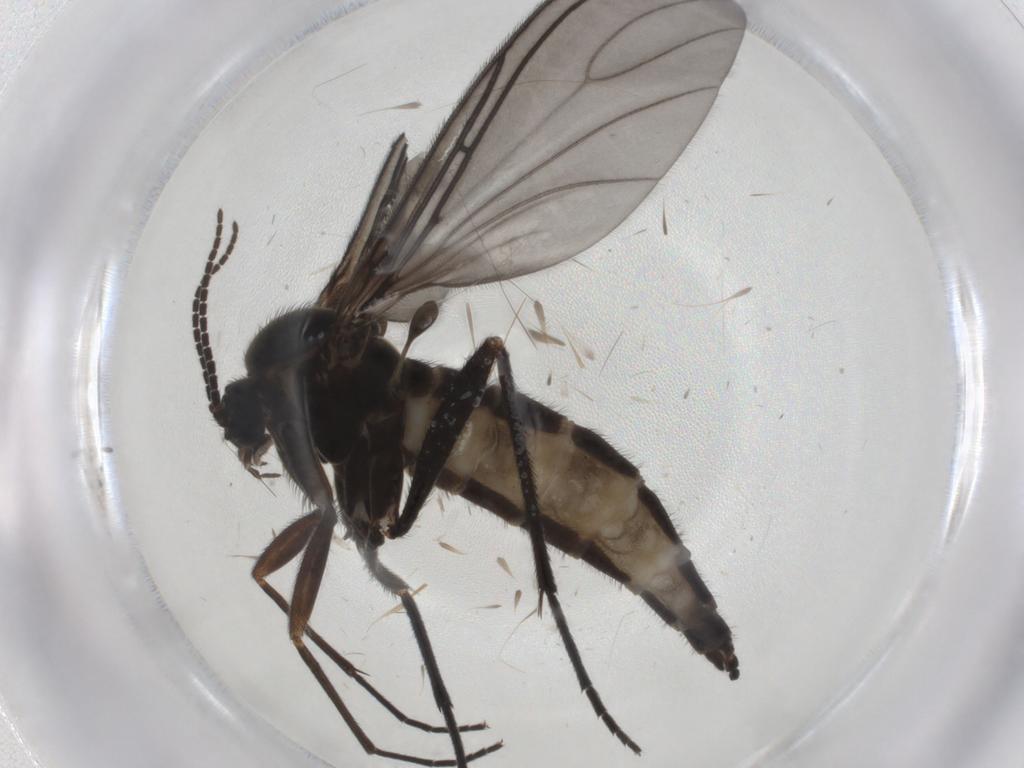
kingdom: Animalia
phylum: Arthropoda
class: Insecta
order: Diptera
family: Sciaridae
